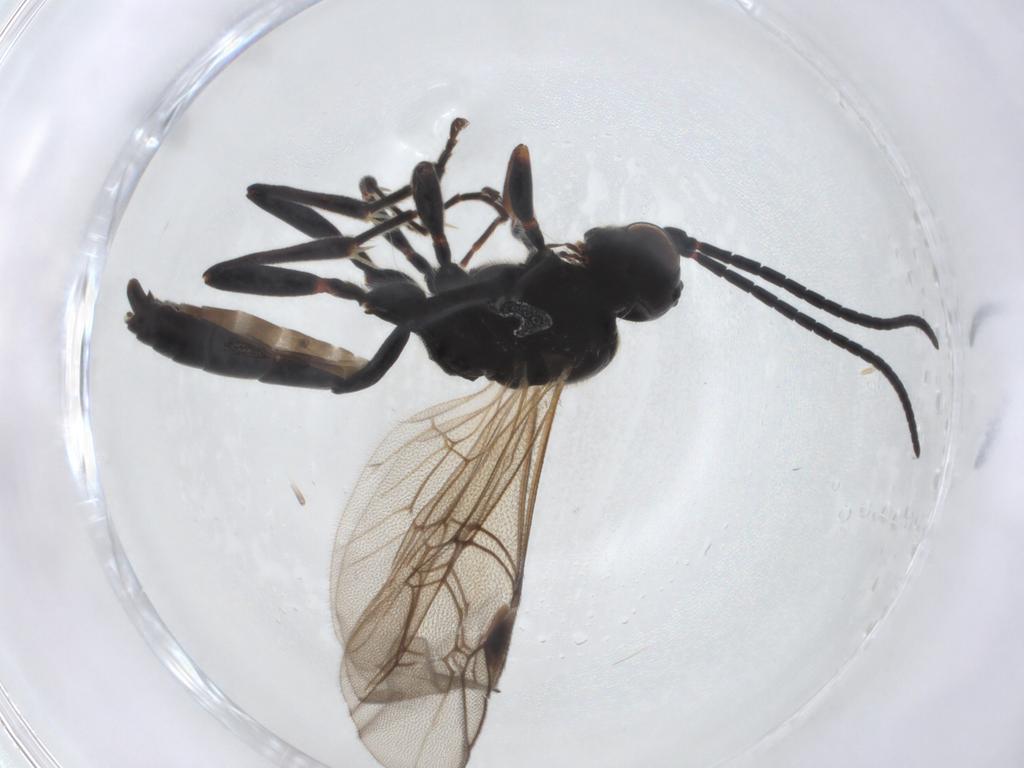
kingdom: Animalia
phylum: Arthropoda
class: Insecta
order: Hymenoptera
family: Ichneumonidae
